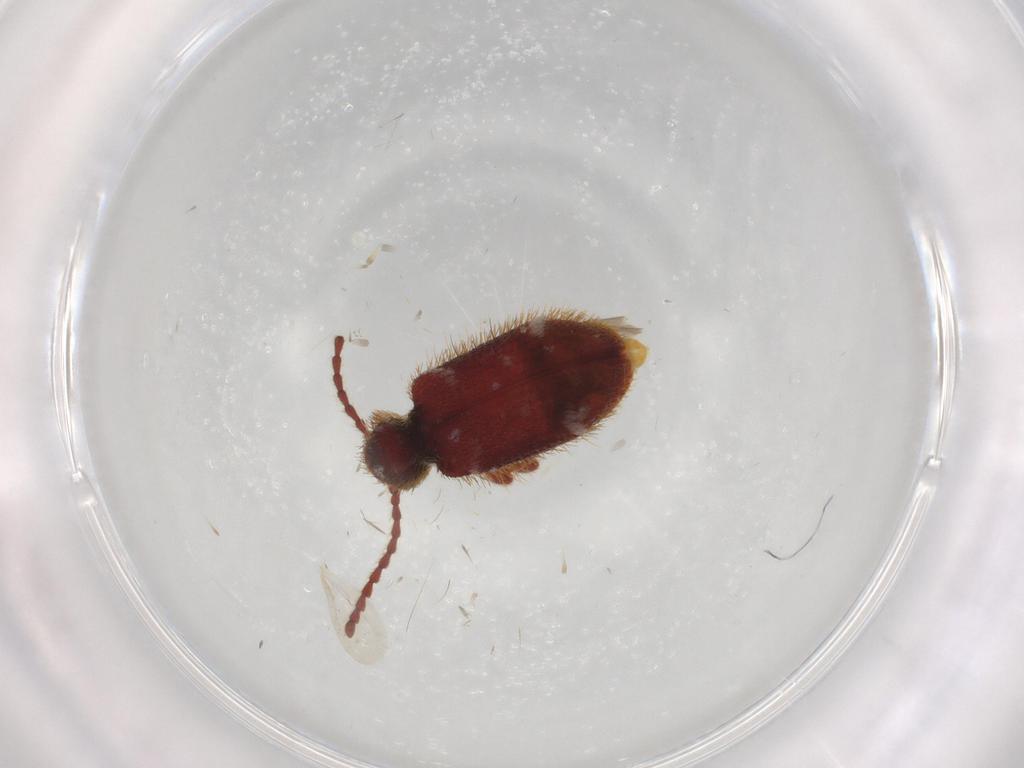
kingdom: Animalia
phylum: Arthropoda
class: Insecta
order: Coleoptera
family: Ptinidae
